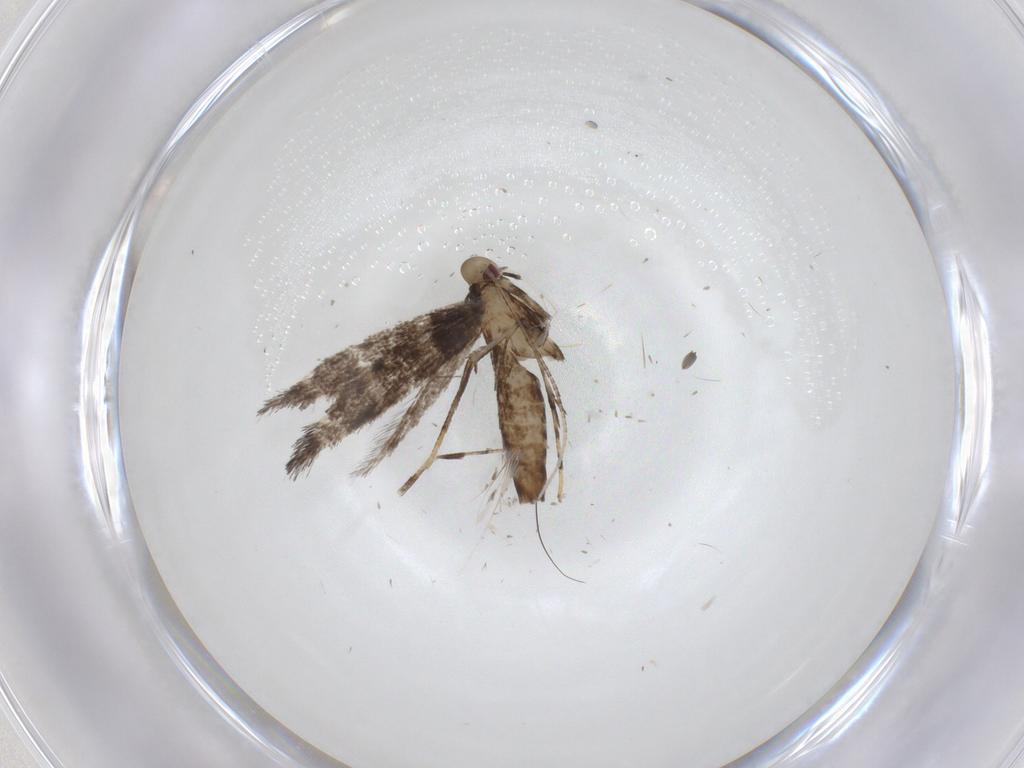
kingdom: Animalia
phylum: Arthropoda
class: Insecta
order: Lepidoptera
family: Gracillariidae
